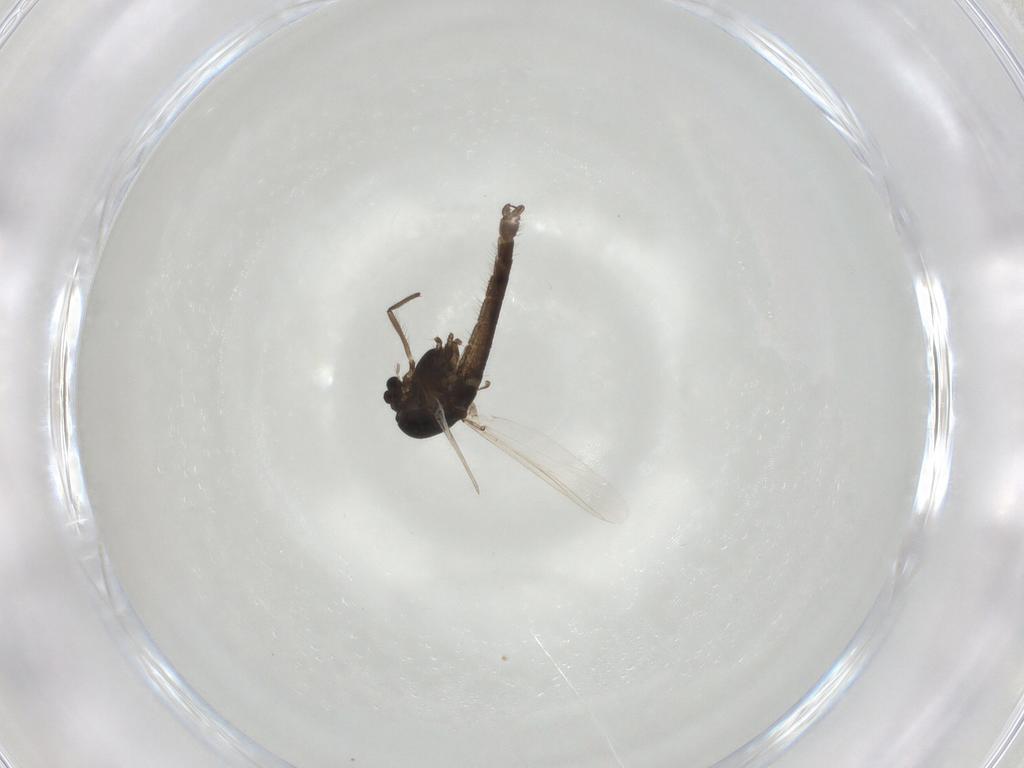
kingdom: Animalia
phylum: Arthropoda
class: Insecta
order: Diptera
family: Chironomidae
